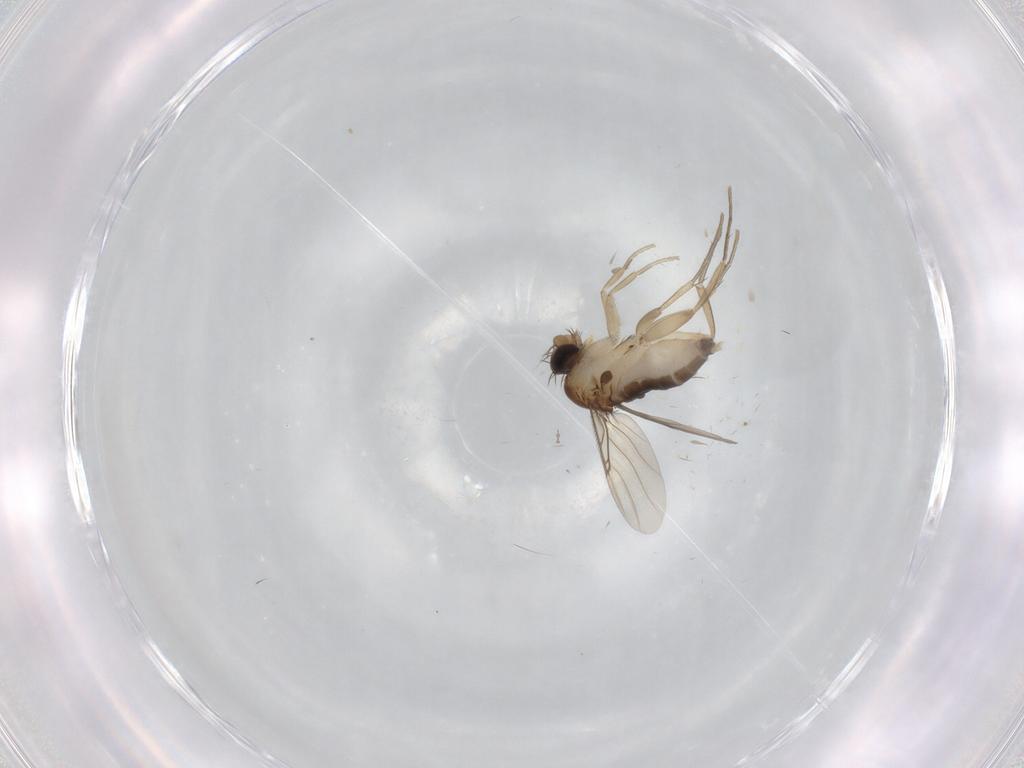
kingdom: Animalia
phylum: Arthropoda
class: Insecta
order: Diptera
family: Phoridae
